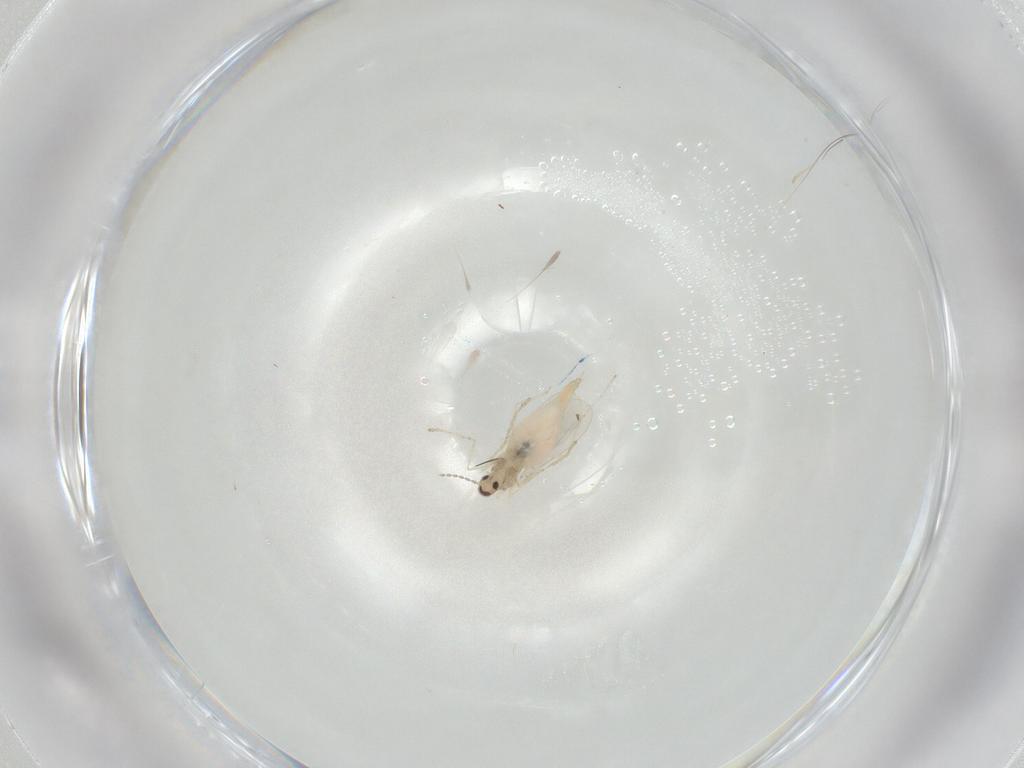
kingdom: Animalia
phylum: Arthropoda
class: Insecta
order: Diptera
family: Cecidomyiidae
